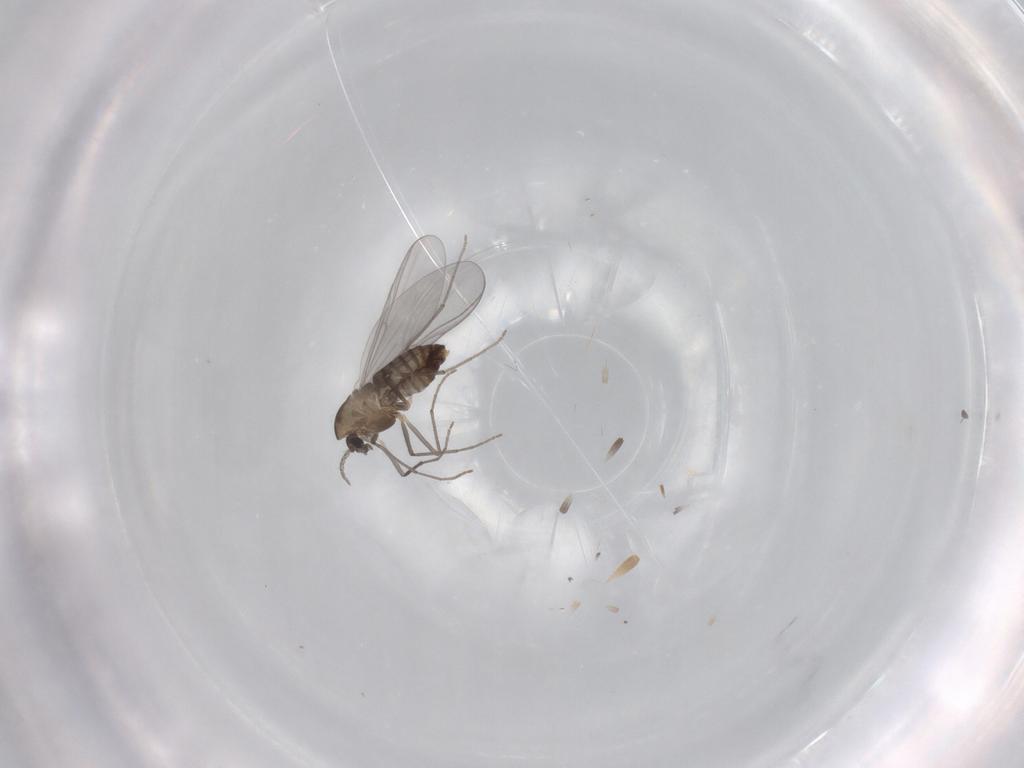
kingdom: Animalia
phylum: Arthropoda
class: Insecta
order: Diptera
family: Chironomidae
